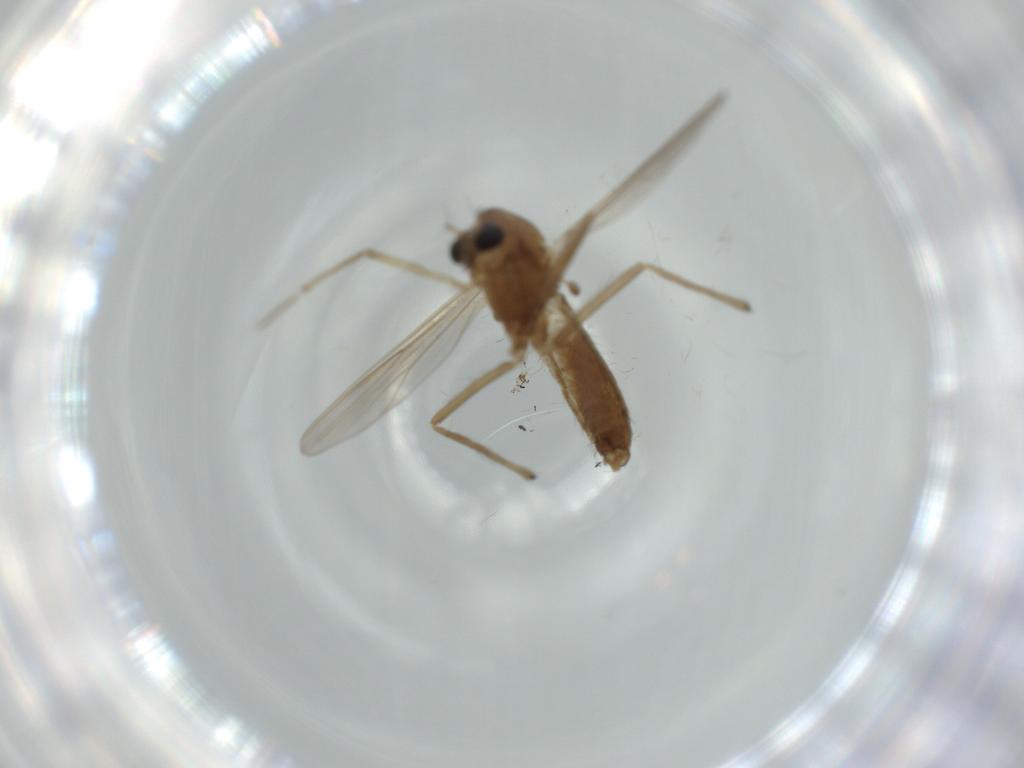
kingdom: Animalia
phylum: Arthropoda
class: Insecta
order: Diptera
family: Chironomidae
